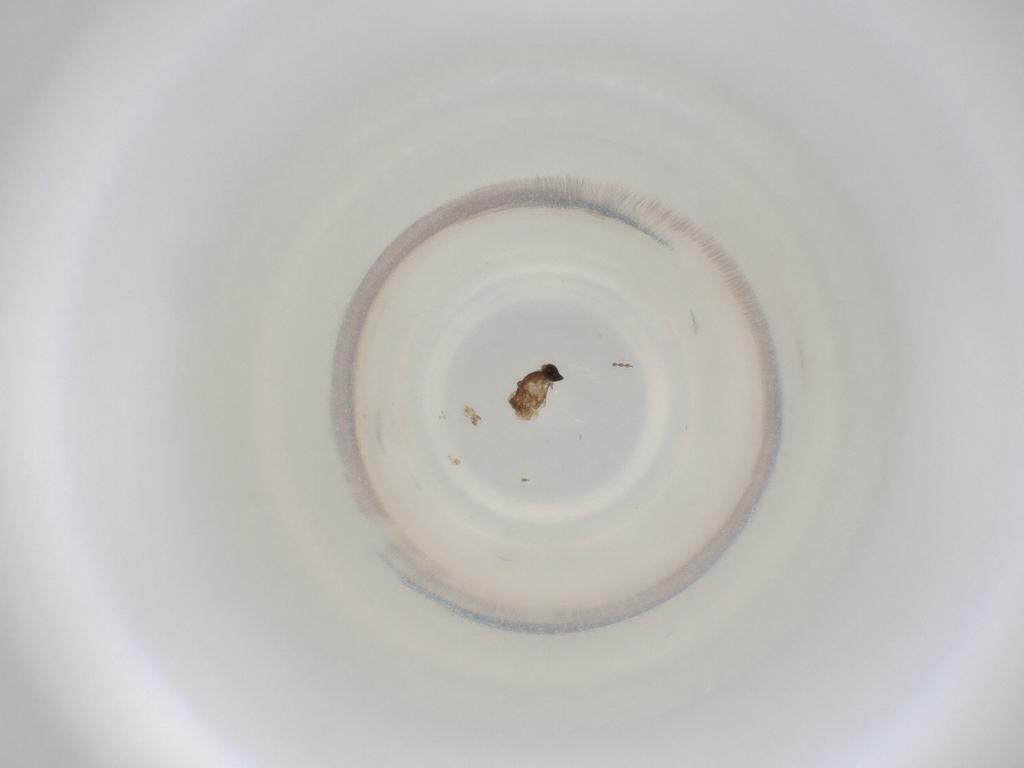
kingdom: Animalia
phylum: Arthropoda
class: Insecta
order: Diptera
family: Cecidomyiidae
